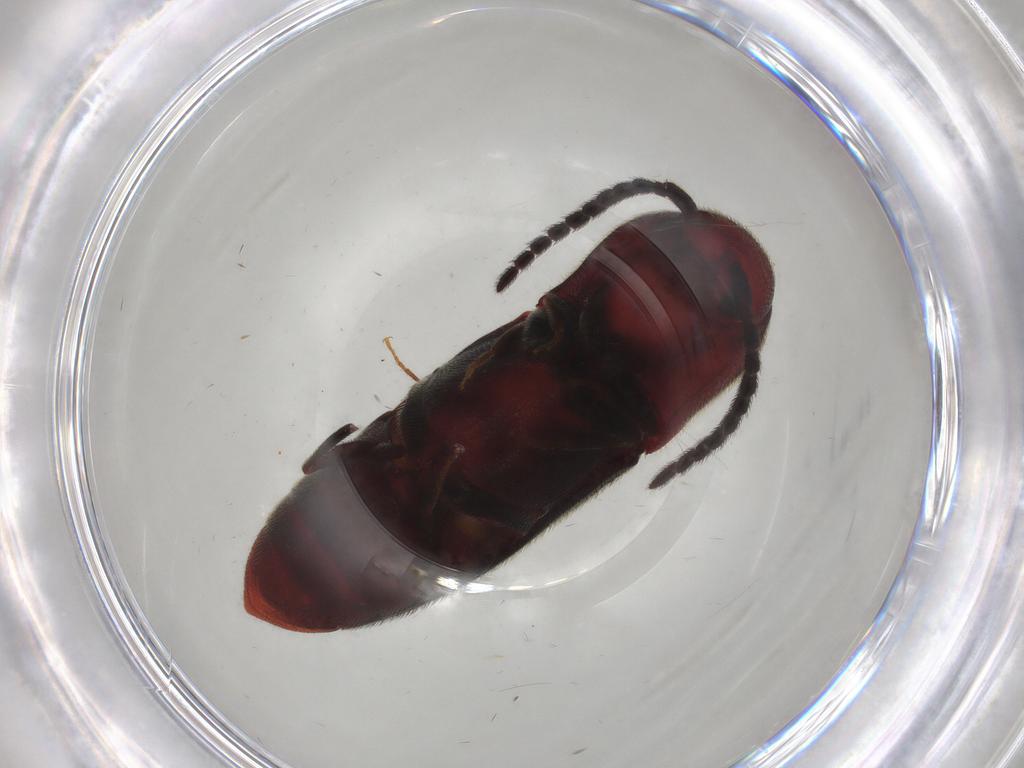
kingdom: Animalia
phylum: Arthropoda
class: Insecta
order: Coleoptera
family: Eucnemidae
